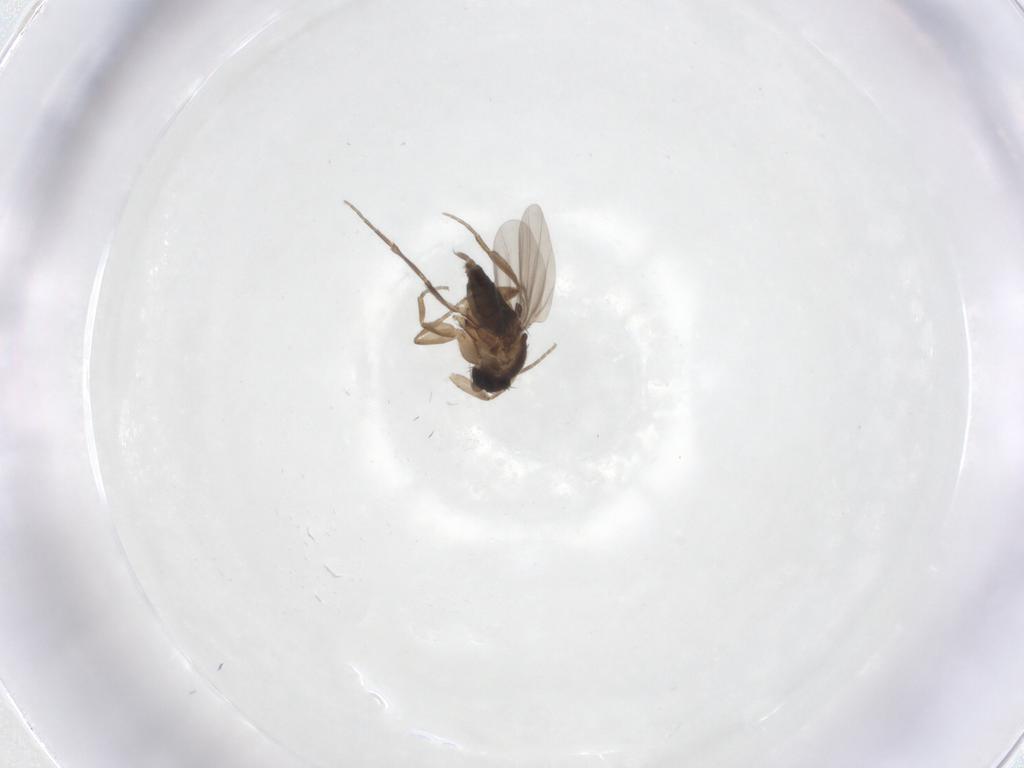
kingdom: Animalia
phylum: Arthropoda
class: Insecta
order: Diptera
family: Phoridae
